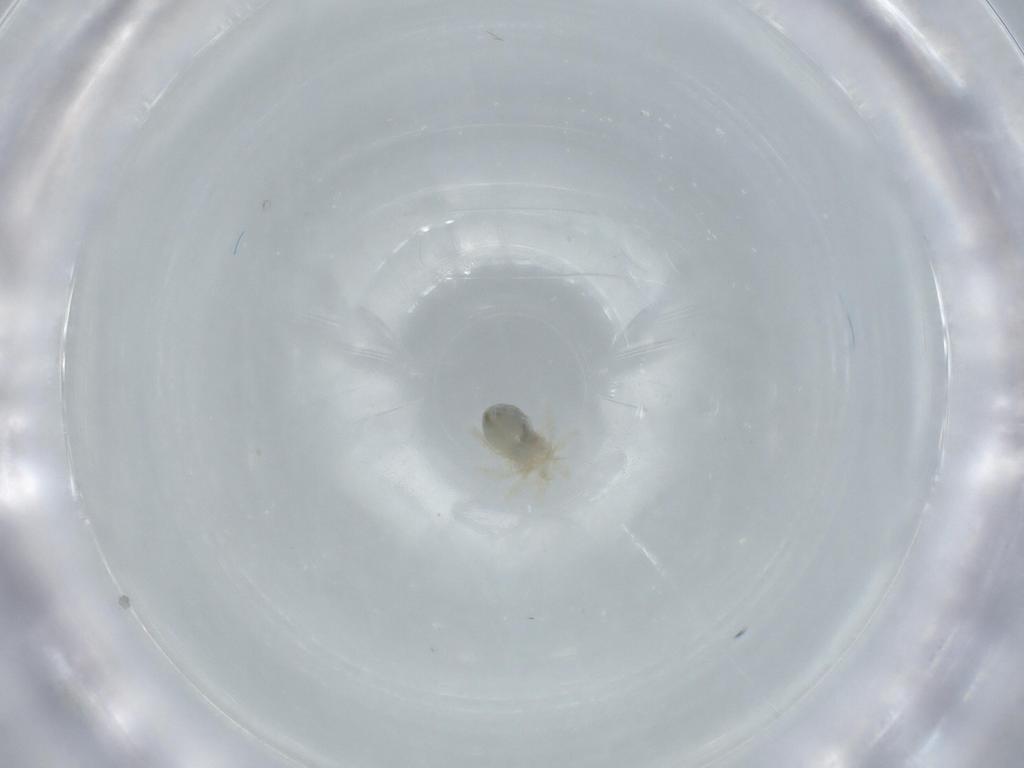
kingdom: Animalia
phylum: Arthropoda
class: Arachnida
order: Trombidiformes
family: Anystidae
